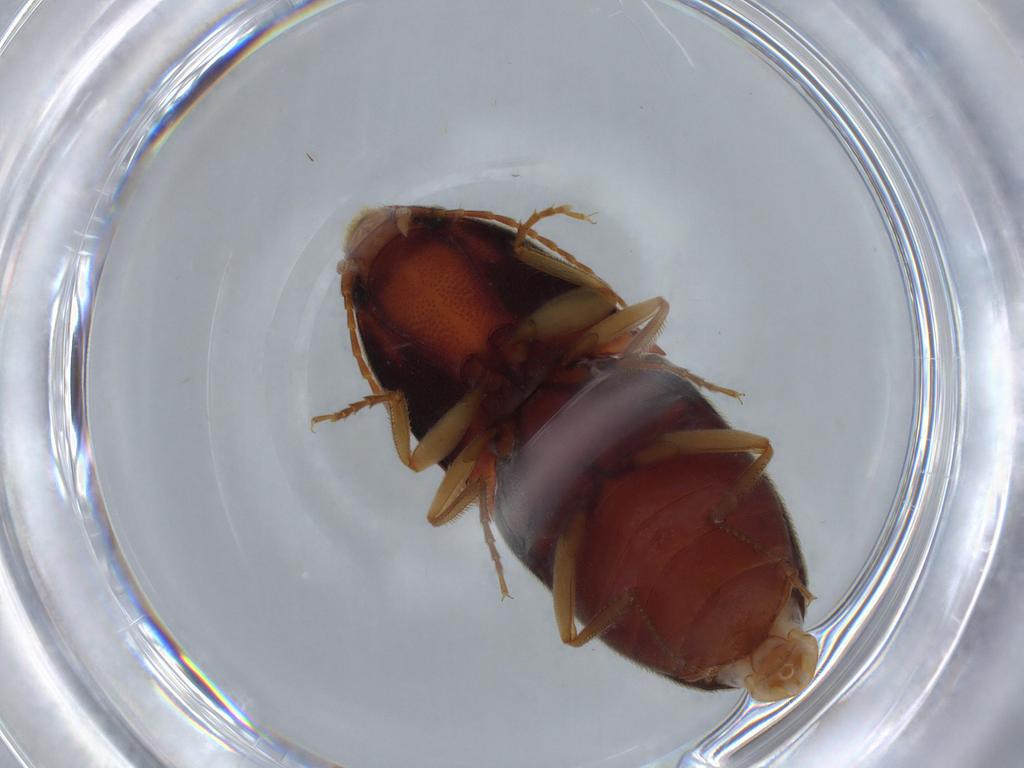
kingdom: Animalia
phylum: Arthropoda
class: Insecta
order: Coleoptera
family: Elateridae
